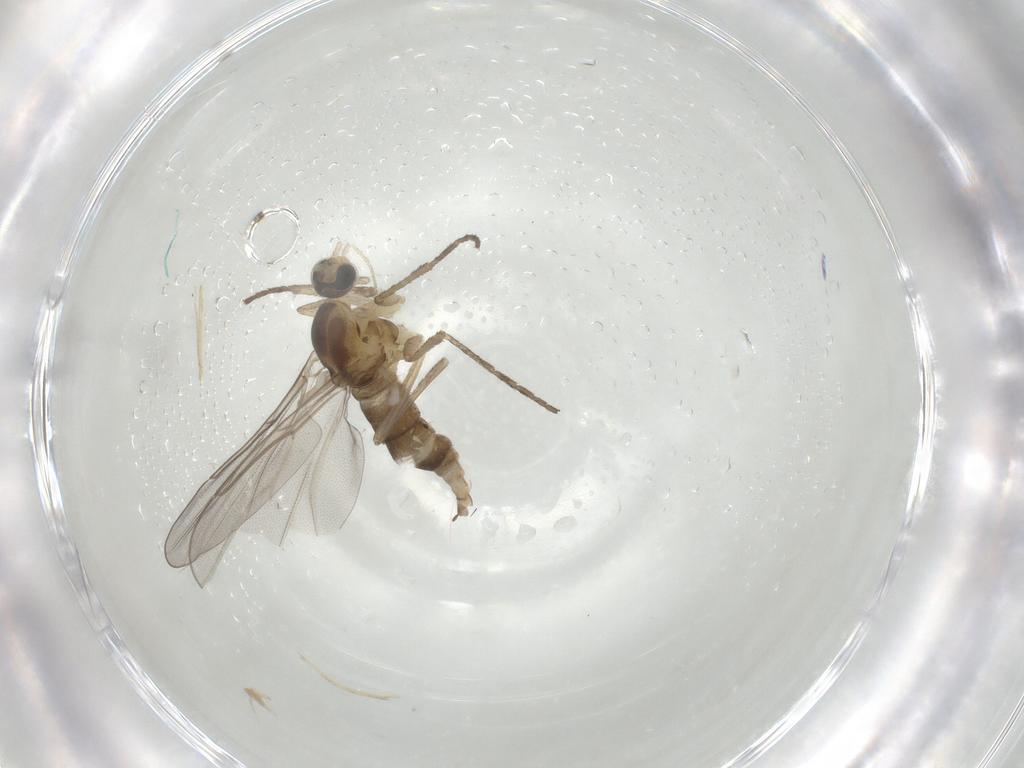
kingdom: Animalia
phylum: Arthropoda
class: Insecta
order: Diptera
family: Cecidomyiidae
